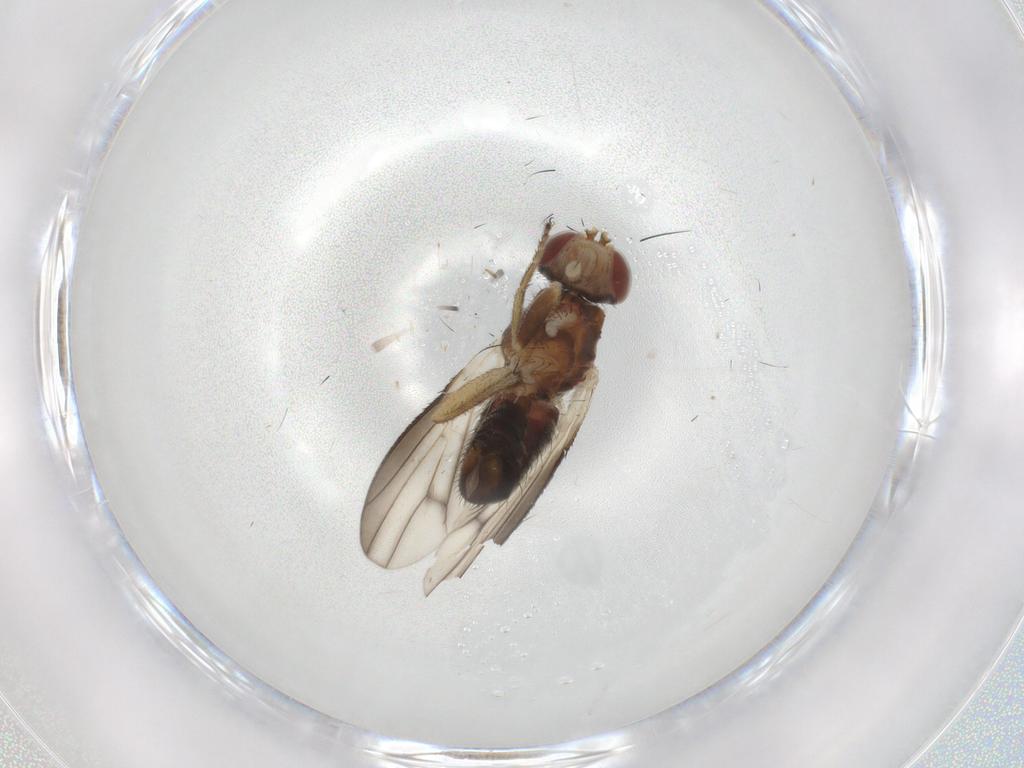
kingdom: Animalia
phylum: Arthropoda
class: Insecta
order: Diptera
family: Heleomyzidae
